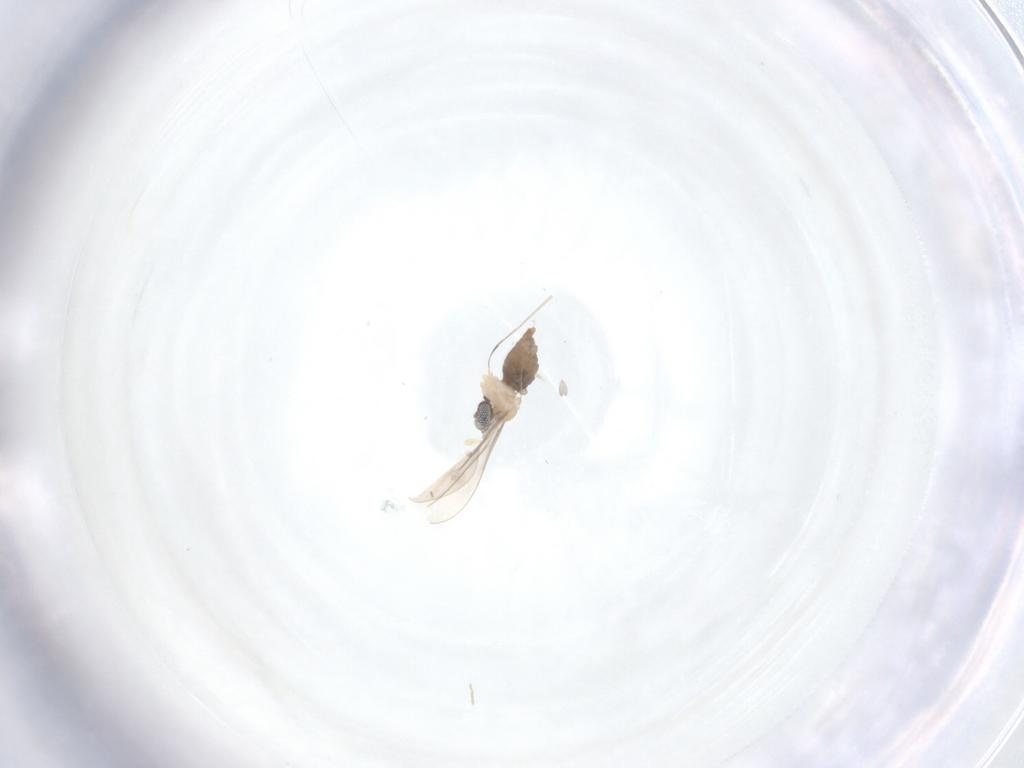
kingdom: Animalia
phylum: Arthropoda
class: Insecta
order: Diptera
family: Cecidomyiidae
